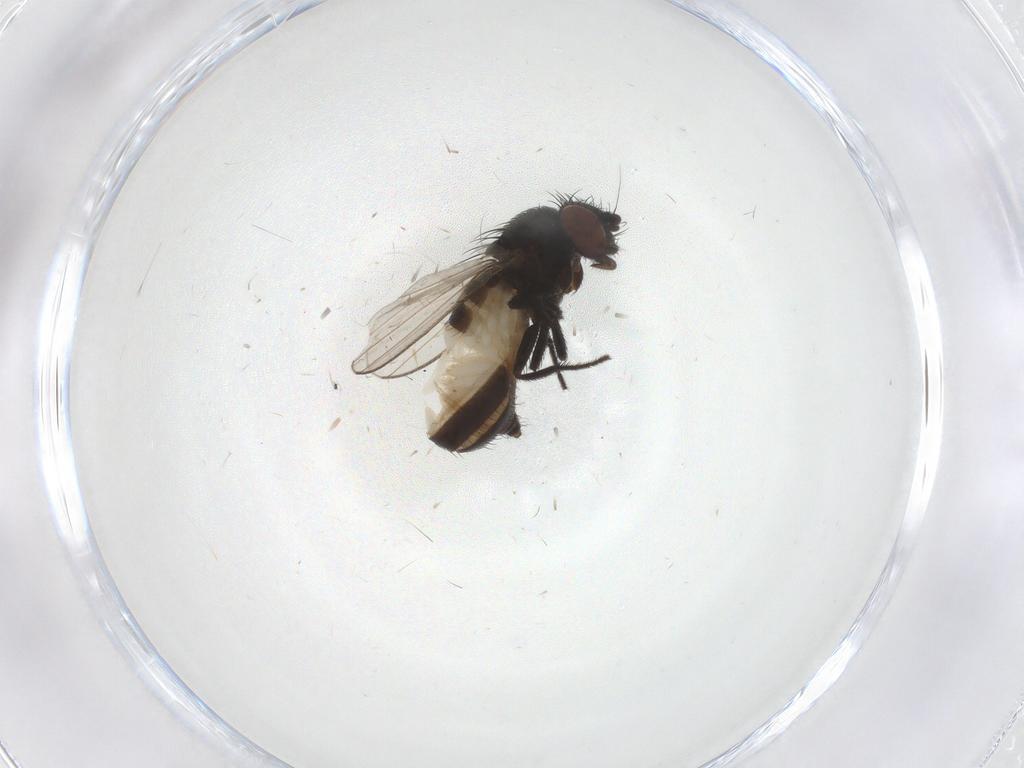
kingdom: Animalia
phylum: Arthropoda
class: Insecta
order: Diptera
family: Milichiidae
